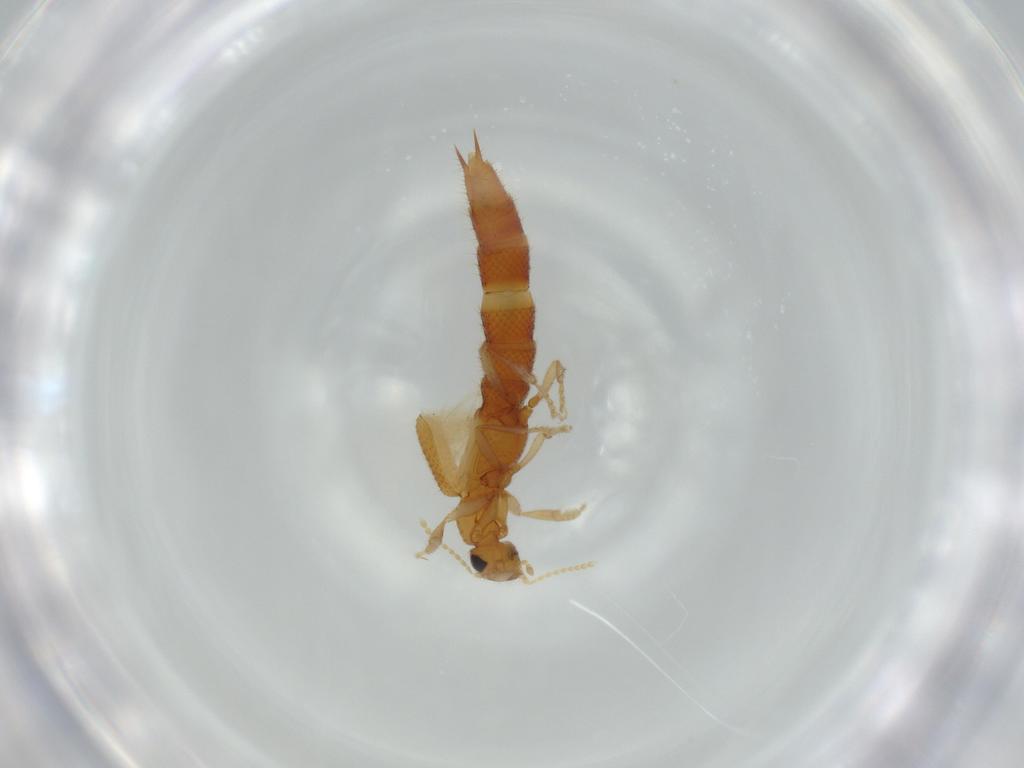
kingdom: Animalia
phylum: Arthropoda
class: Insecta
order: Coleoptera
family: Staphylinidae
